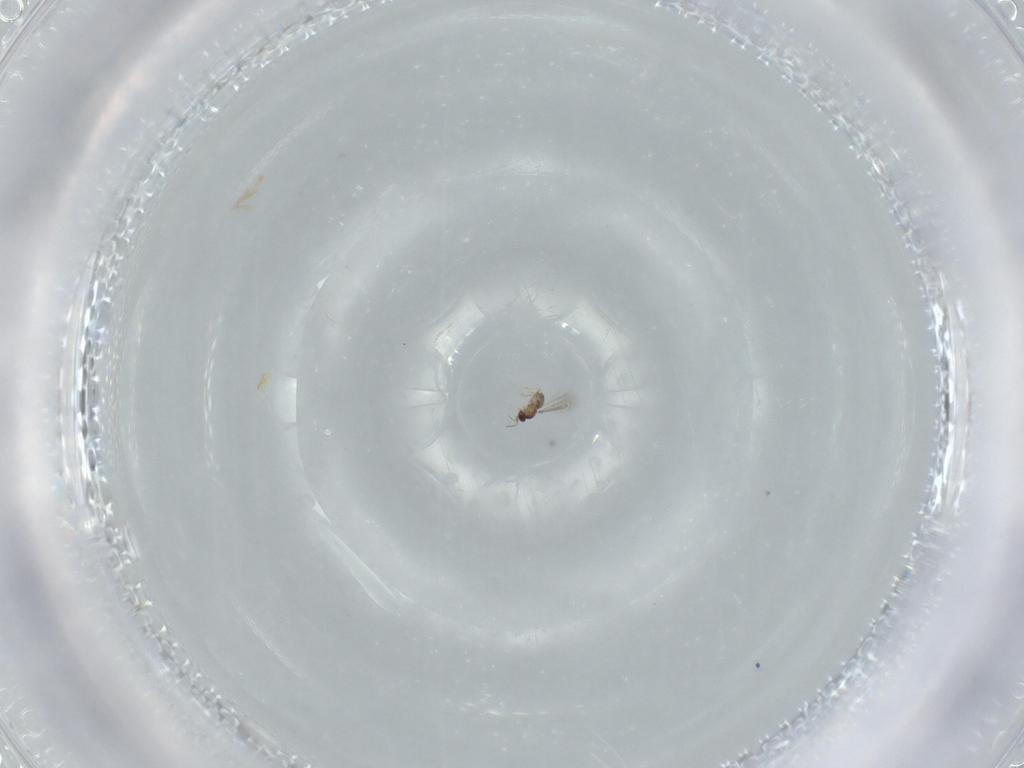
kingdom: Animalia
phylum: Arthropoda
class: Insecta
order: Hymenoptera
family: Mymaridae
